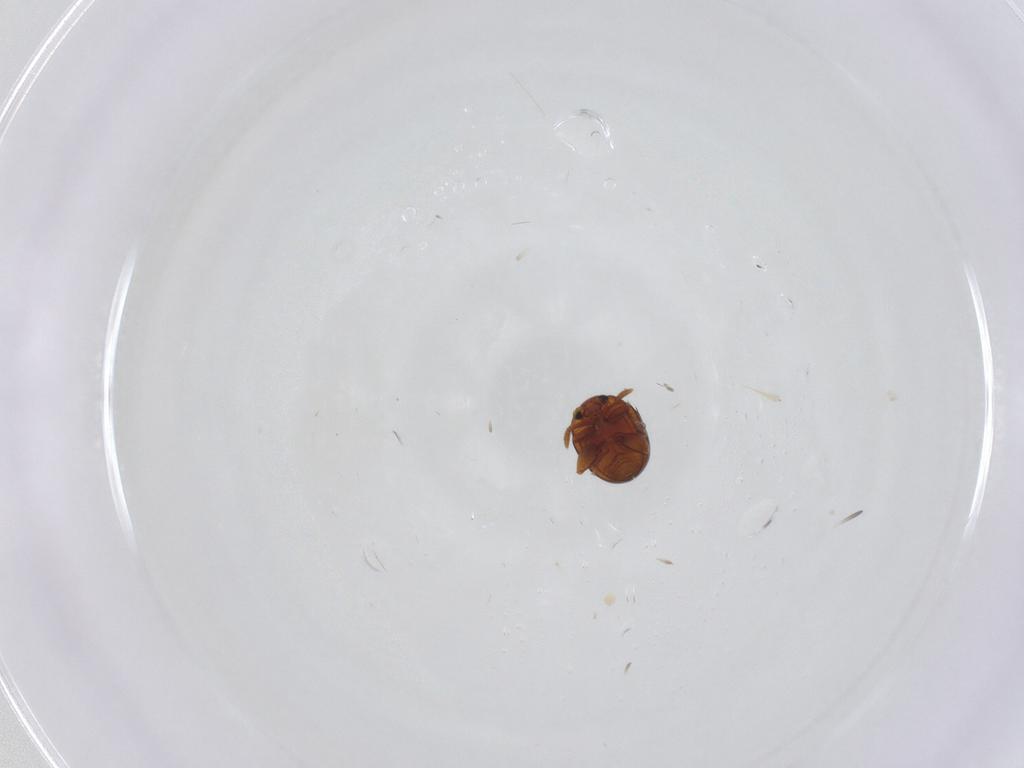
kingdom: Animalia
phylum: Arthropoda
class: Insecta
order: Coleoptera
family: Chrysomelidae
